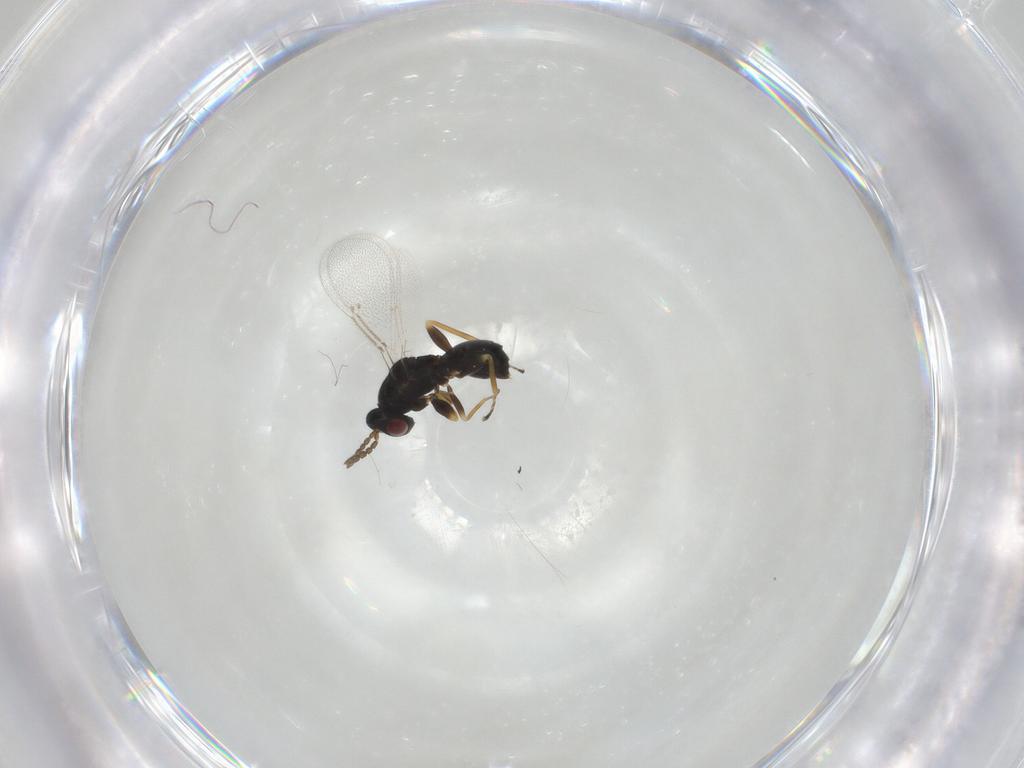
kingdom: Animalia
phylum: Arthropoda
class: Insecta
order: Hymenoptera
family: Eulophidae
